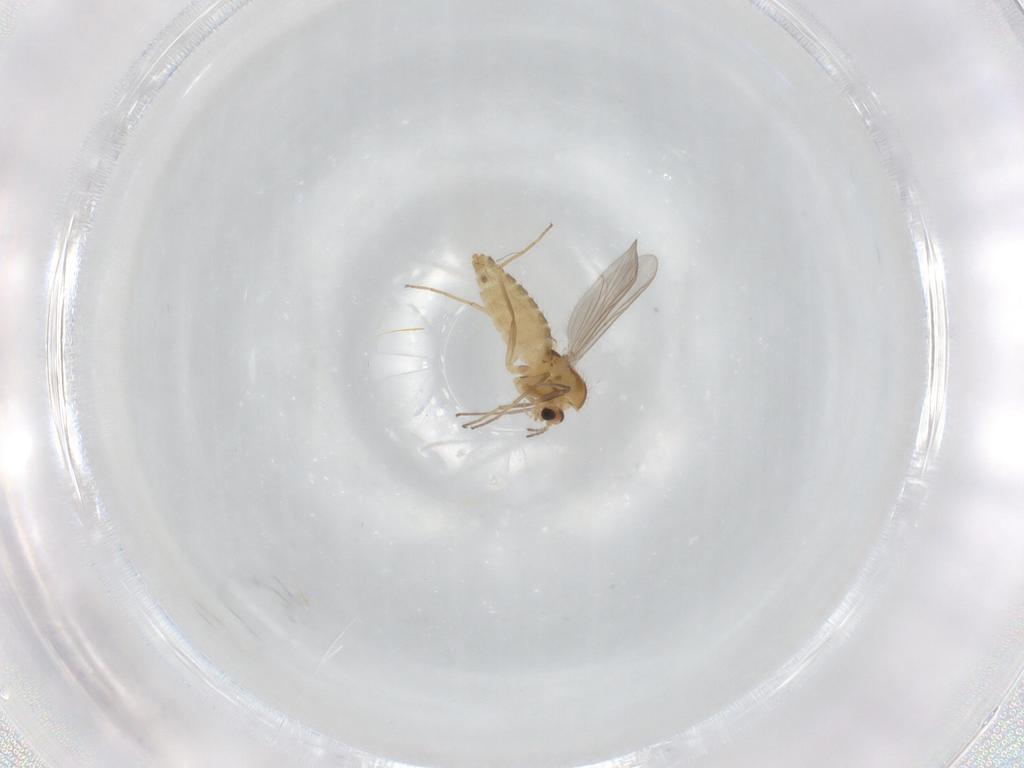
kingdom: Animalia
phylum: Arthropoda
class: Insecta
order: Diptera
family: Chironomidae
